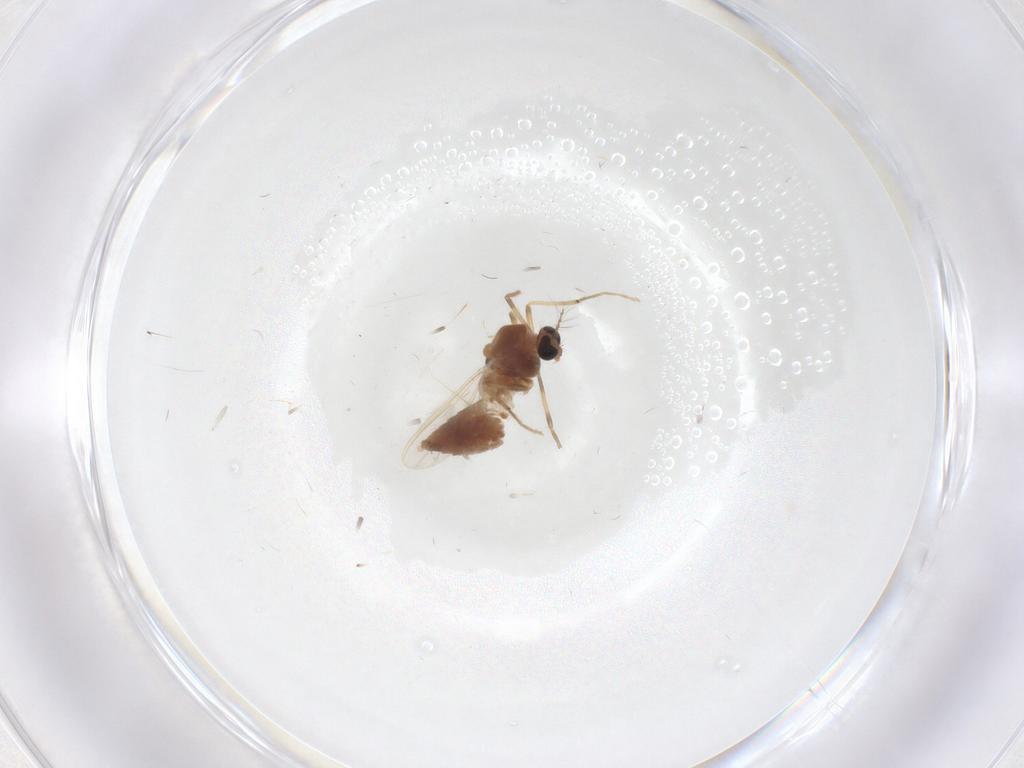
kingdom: Animalia
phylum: Arthropoda
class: Insecta
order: Diptera
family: Chironomidae
